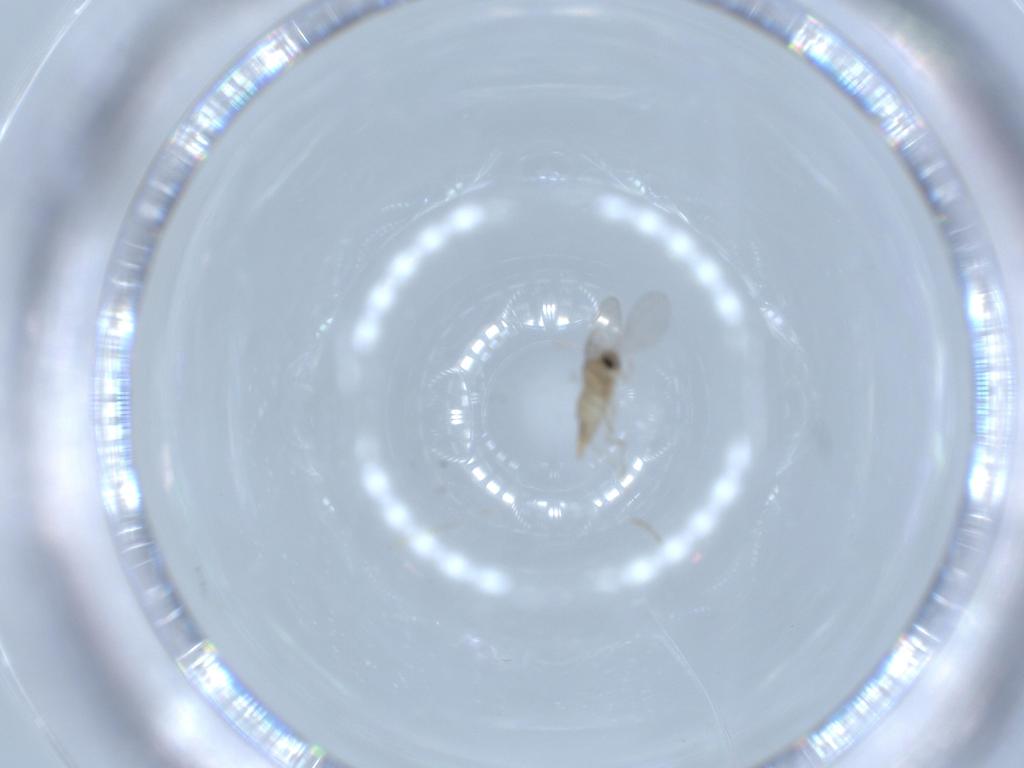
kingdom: Animalia
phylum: Arthropoda
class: Insecta
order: Diptera
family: Cecidomyiidae
